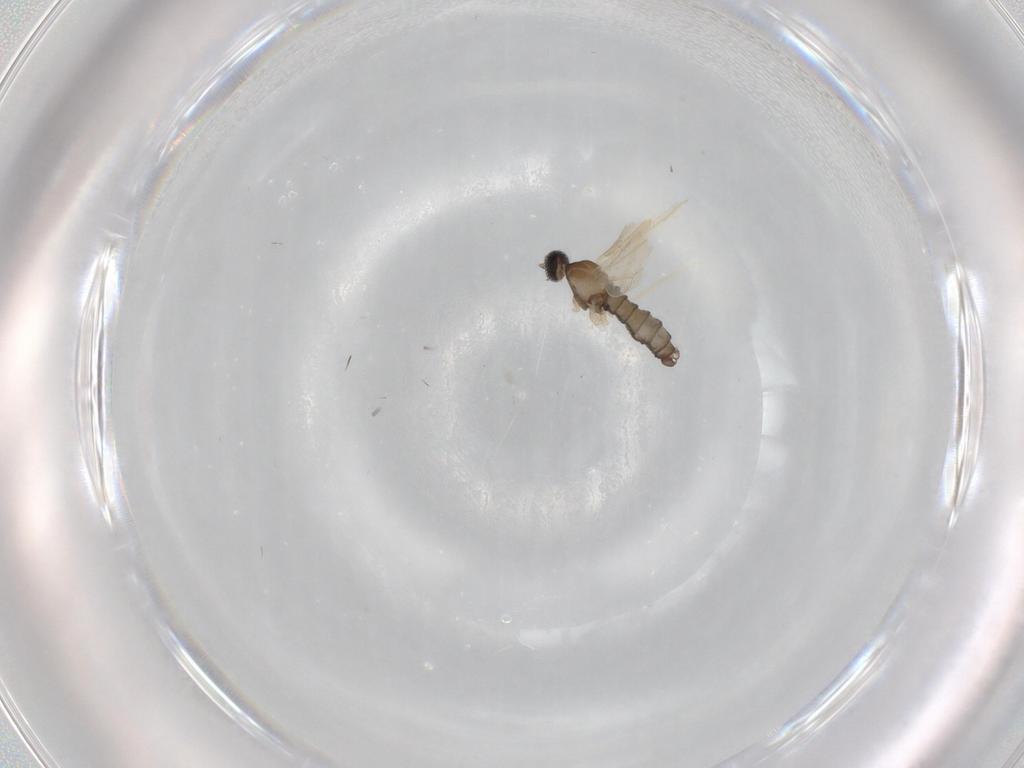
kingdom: Animalia
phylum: Arthropoda
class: Insecta
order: Diptera
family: Cecidomyiidae
